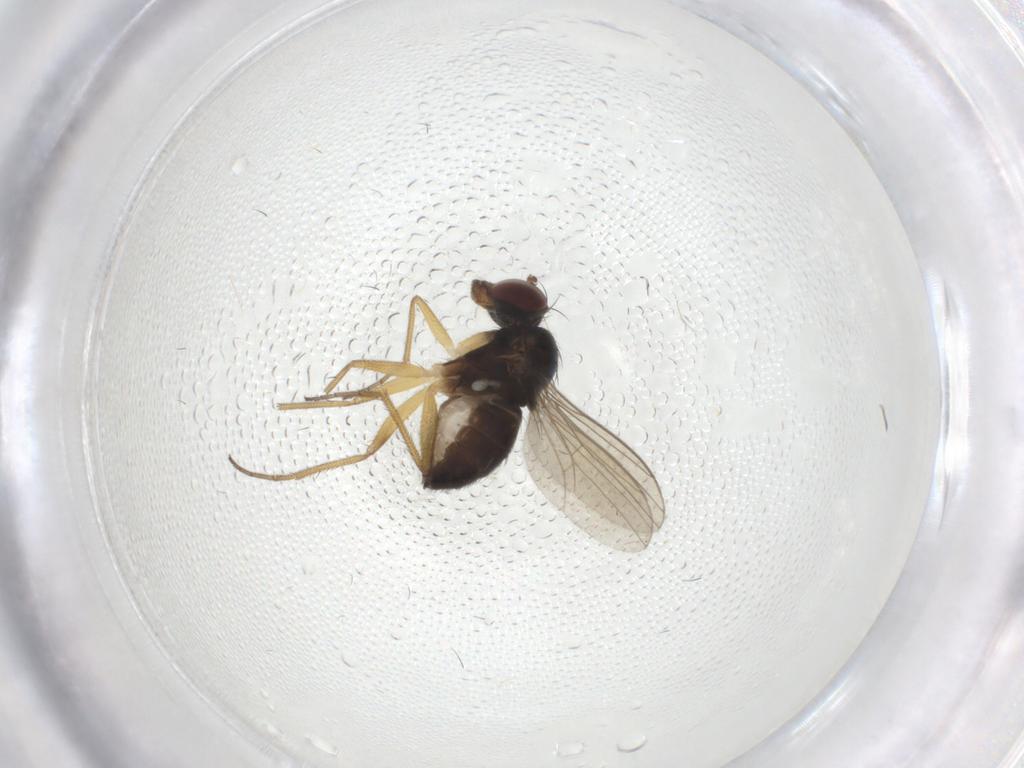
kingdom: Animalia
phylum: Arthropoda
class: Insecta
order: Diptera
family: Dolichopodidae
